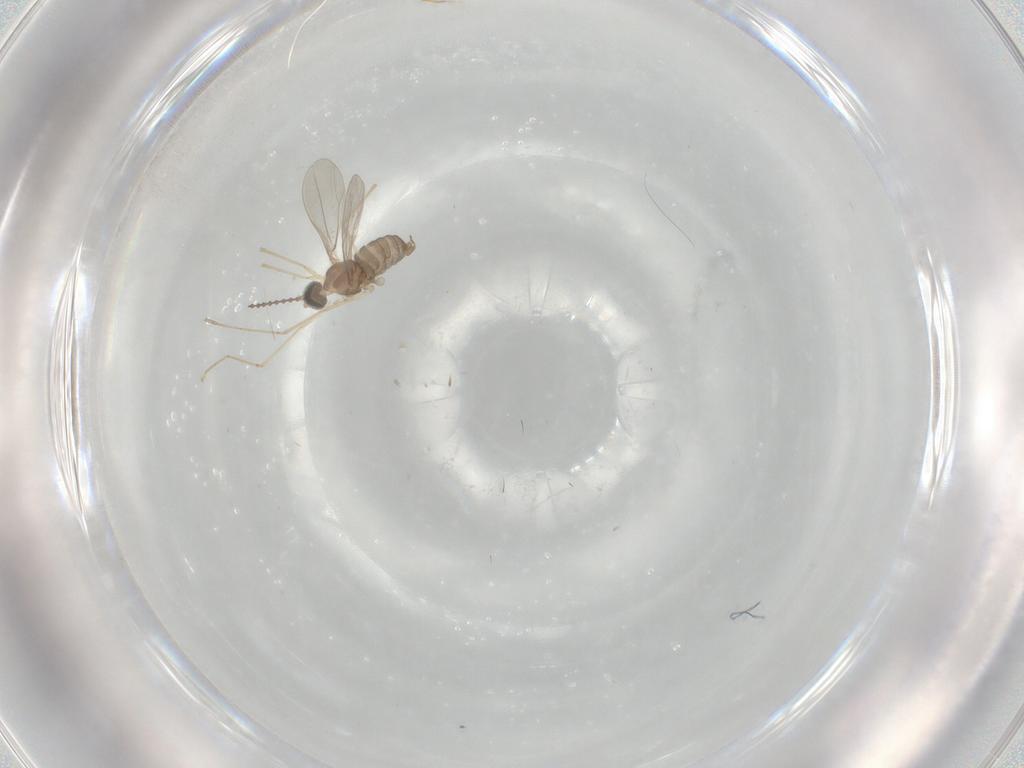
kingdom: Animalia
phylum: Arthropoda
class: Insecta
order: Diptera
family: Cecidomyiidae
